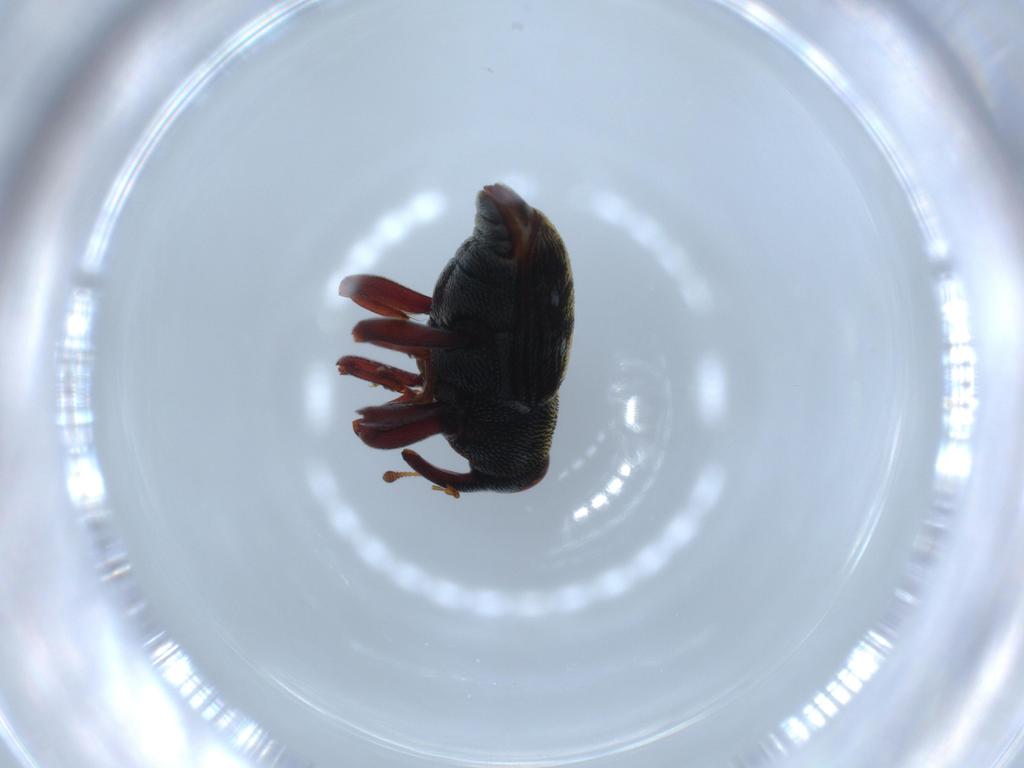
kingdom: Animalia
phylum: Arthropoda
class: Insecta
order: Coleoptera
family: Curculionidae
